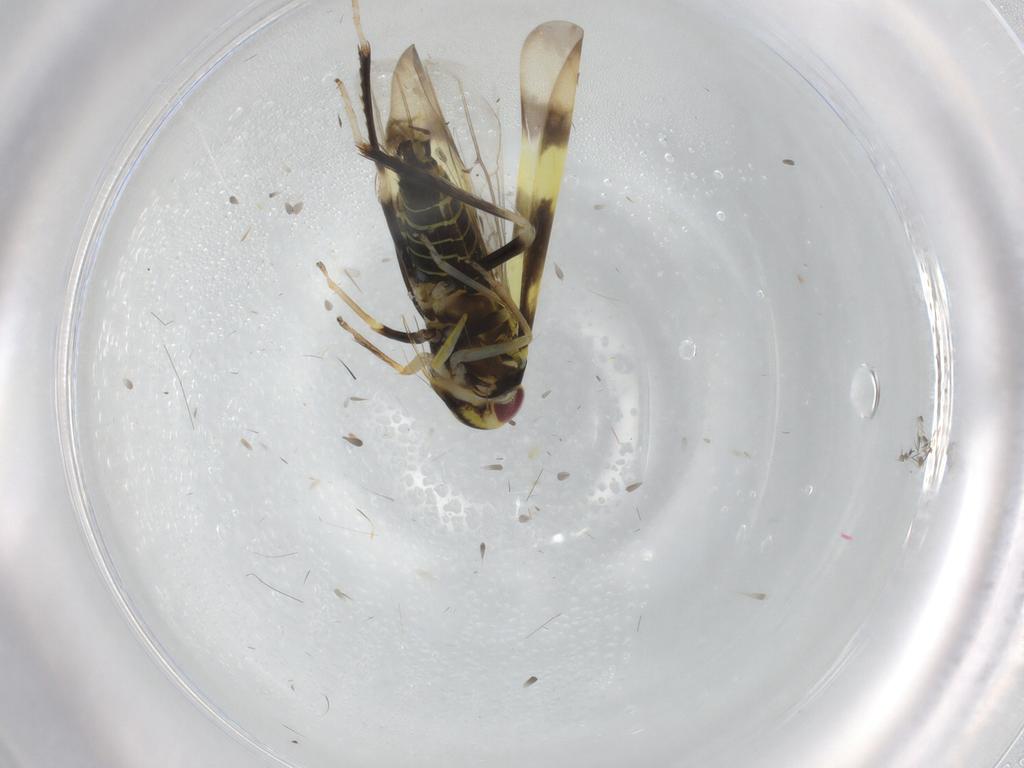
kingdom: Animalia
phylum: Arthropoda
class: Insecta
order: Hemiptera
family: Cicadellidae
